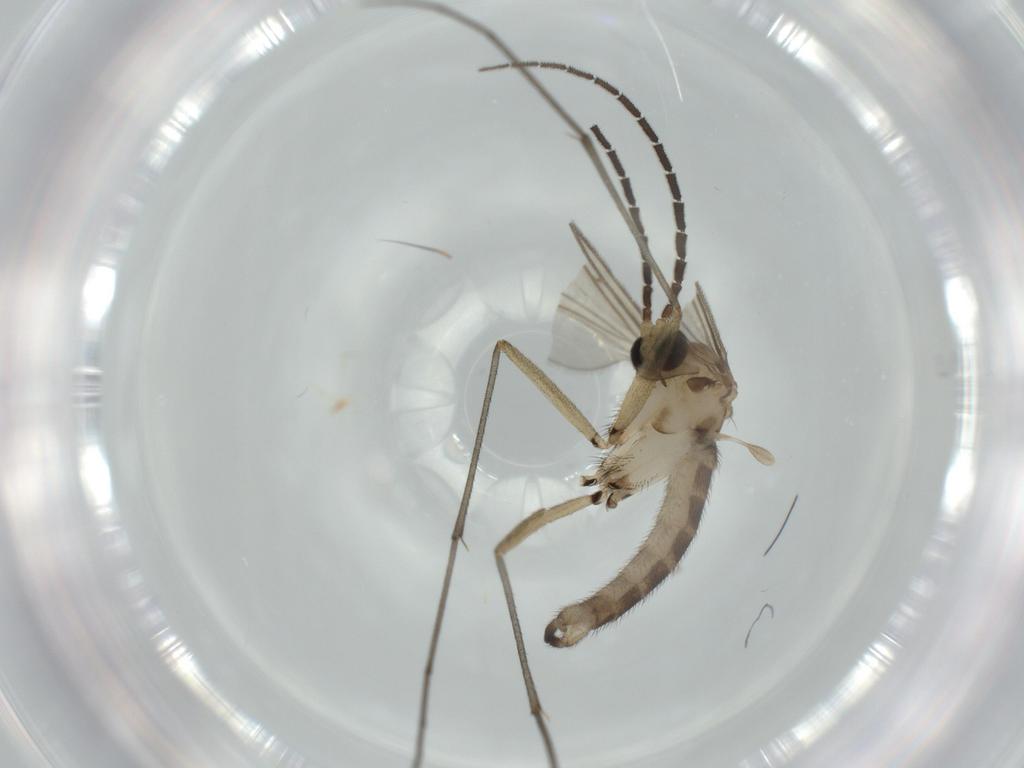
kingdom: Animalia
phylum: Arthropoda
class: Insecta
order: Diptera
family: Sciaridae
